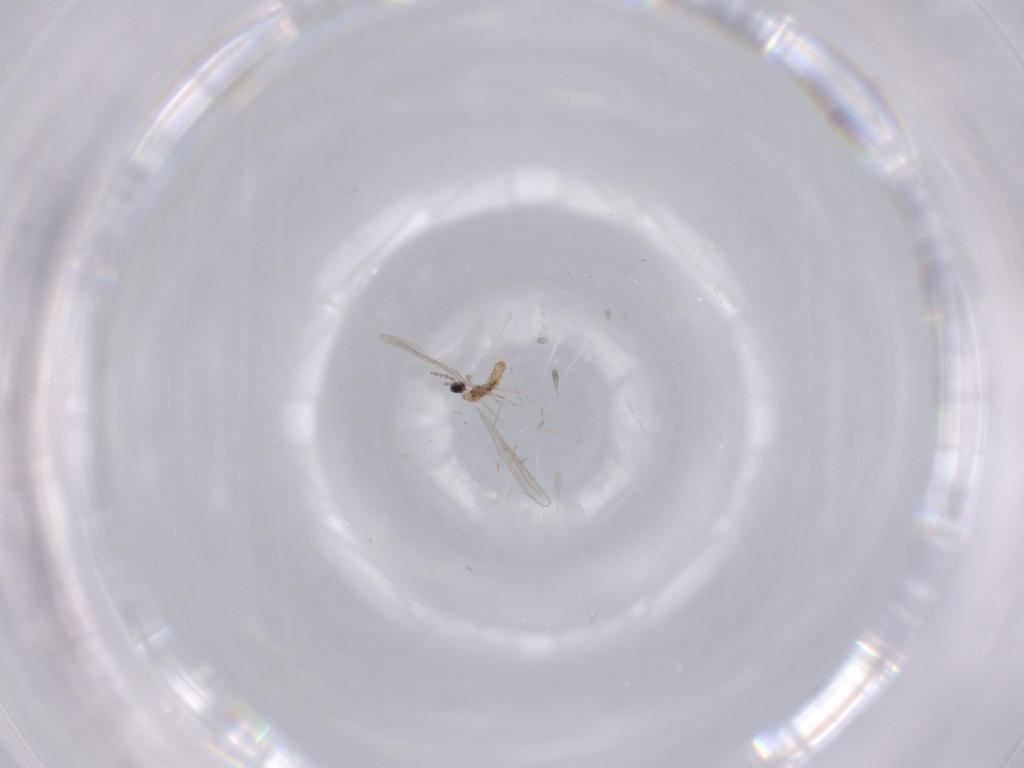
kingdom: Animalia
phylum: Arthropoda
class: Insecta
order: Diptera
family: Cecidomyiidae
